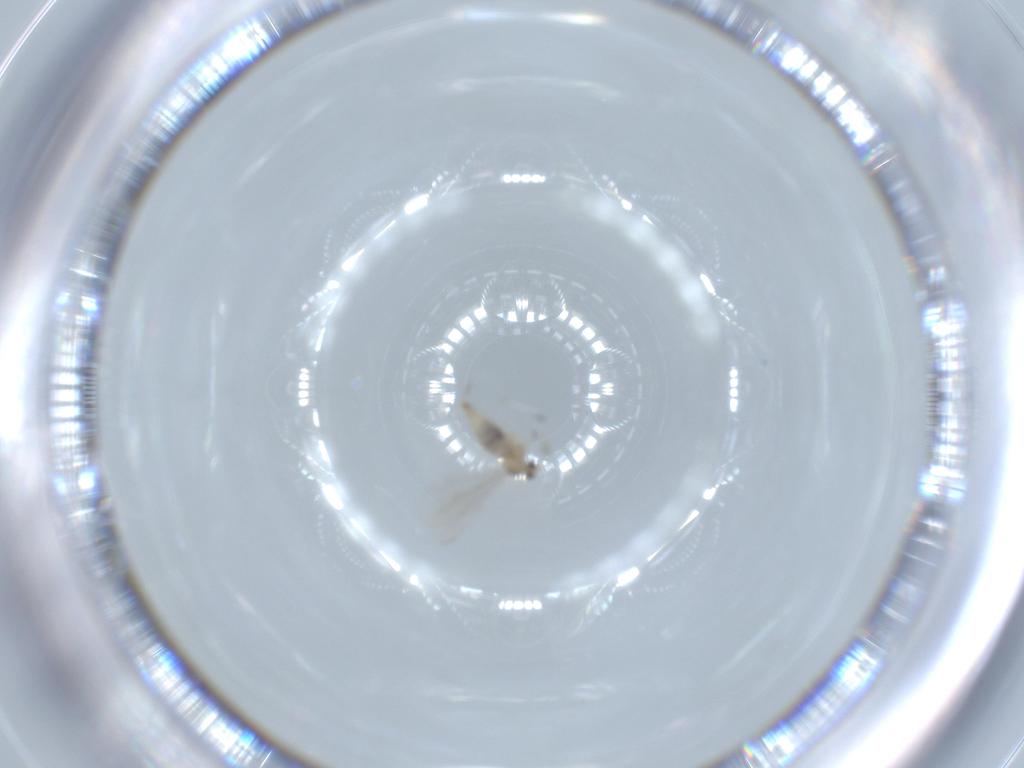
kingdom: Animalia
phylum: Arthropoda
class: Insecta
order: Diptera
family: Cecidomyiidae
